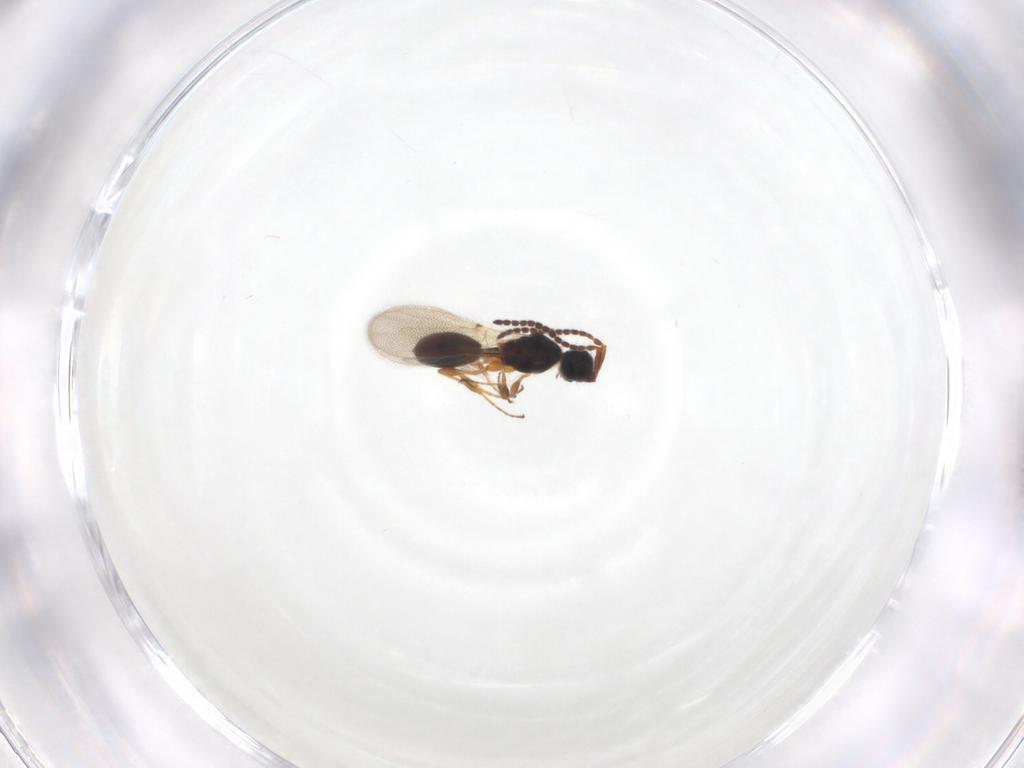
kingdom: Animalia
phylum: Arthropoda
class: Insecta
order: Hymenoptera
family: Diapriidae
